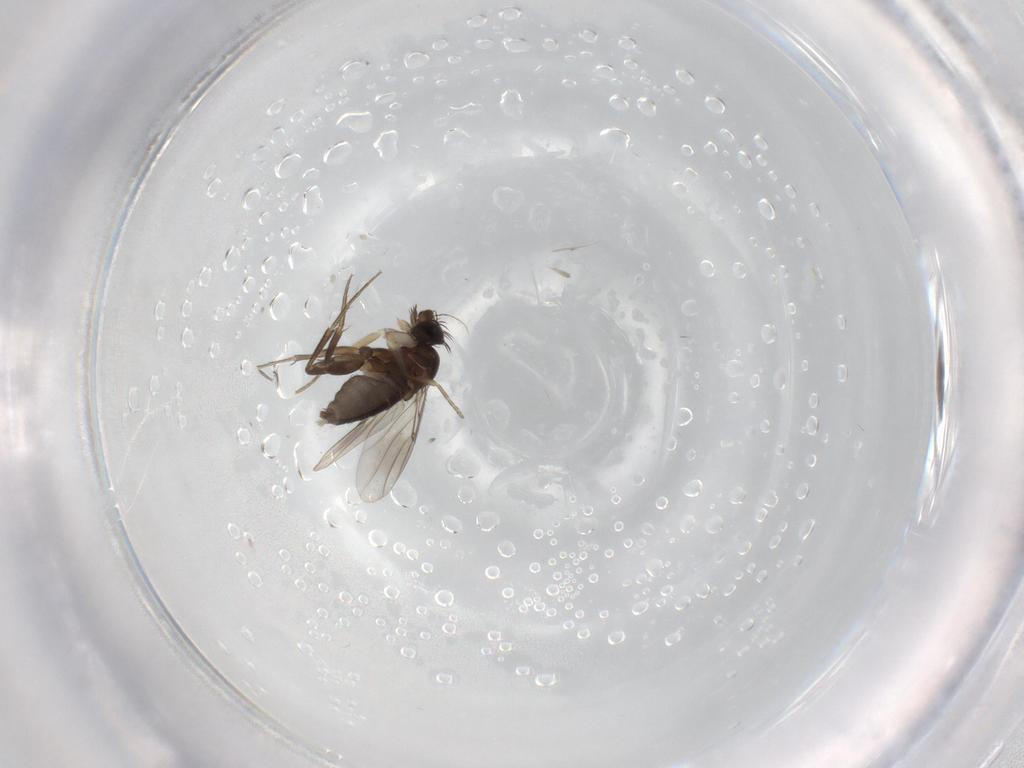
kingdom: Animalia
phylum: Arthropoda
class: Insecta
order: Diptera
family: Phoridae
